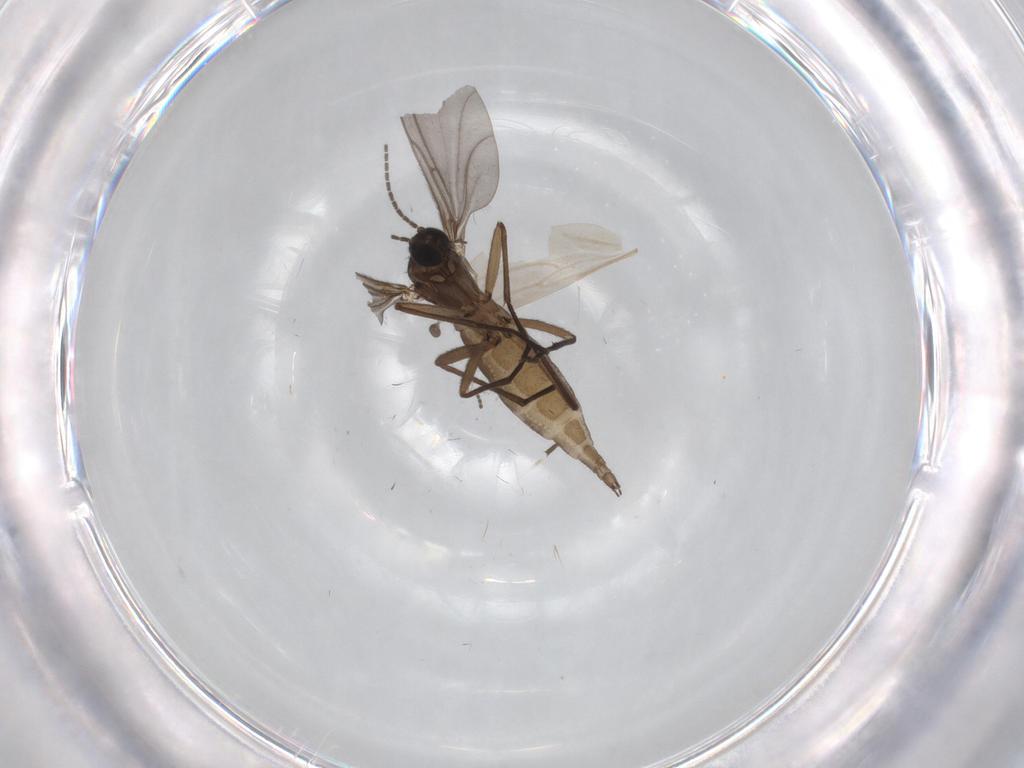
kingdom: Animalia
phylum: Arthropoda
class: Insecta
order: Diptera
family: Sciaridae
